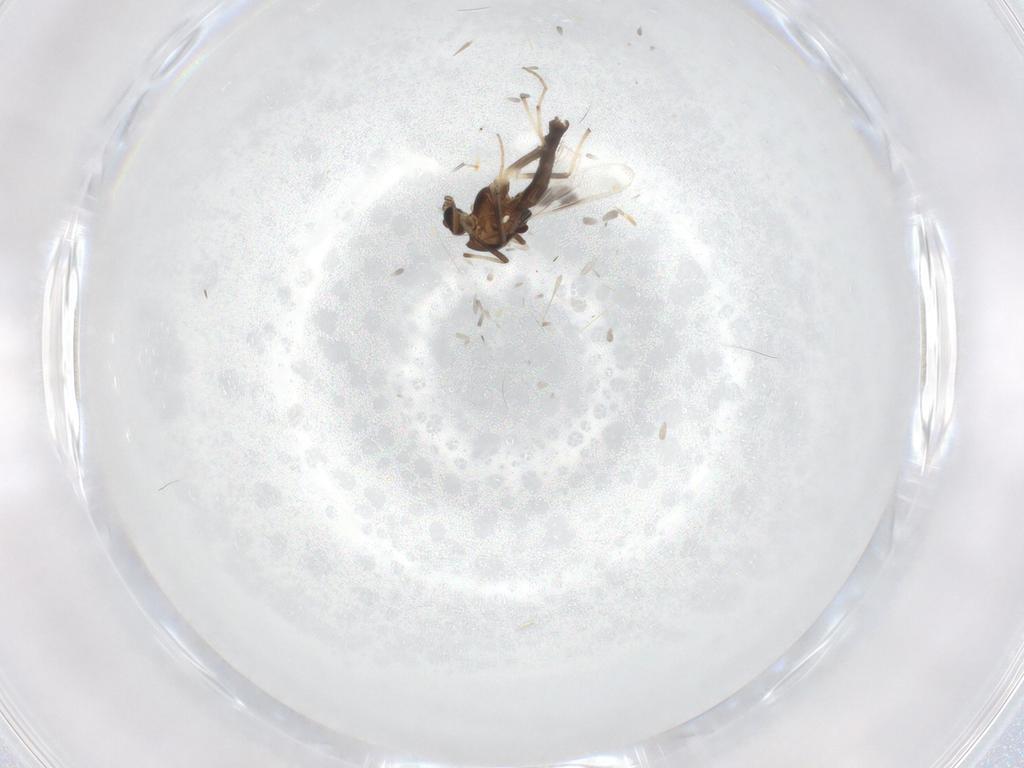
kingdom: Animalia
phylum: Arthropoda
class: Insecta
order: Diptera
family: Chironomidae
